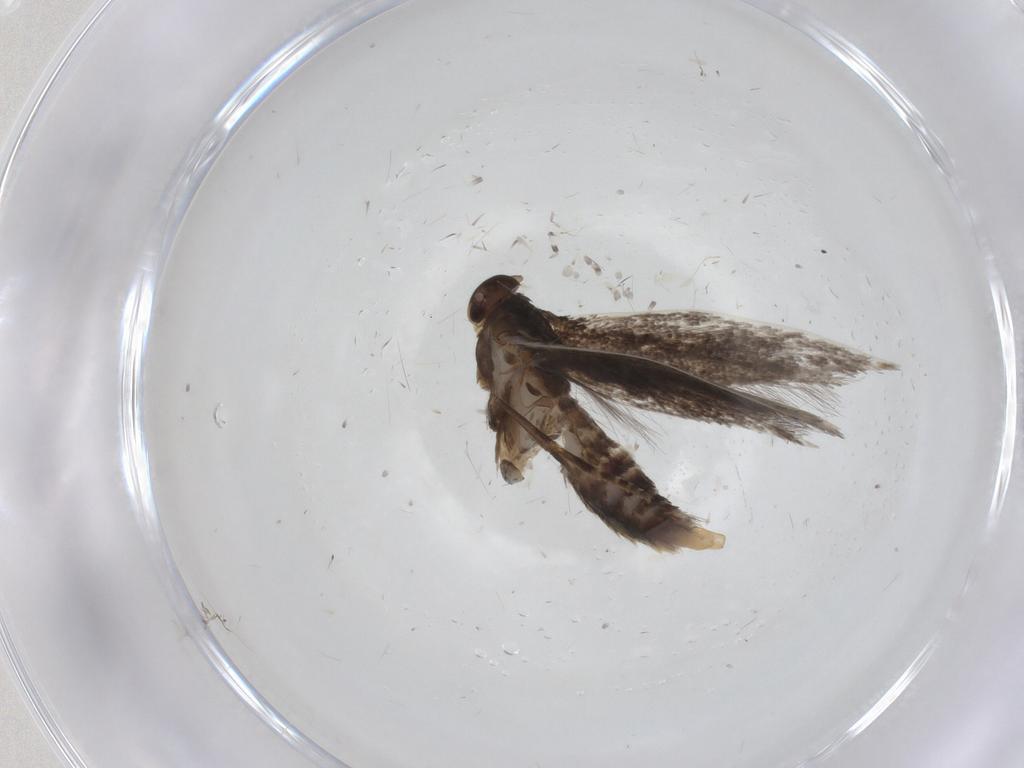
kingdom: Animalia
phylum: Arthropoda
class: Insecta
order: Lepidoptera
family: Elachistidae
